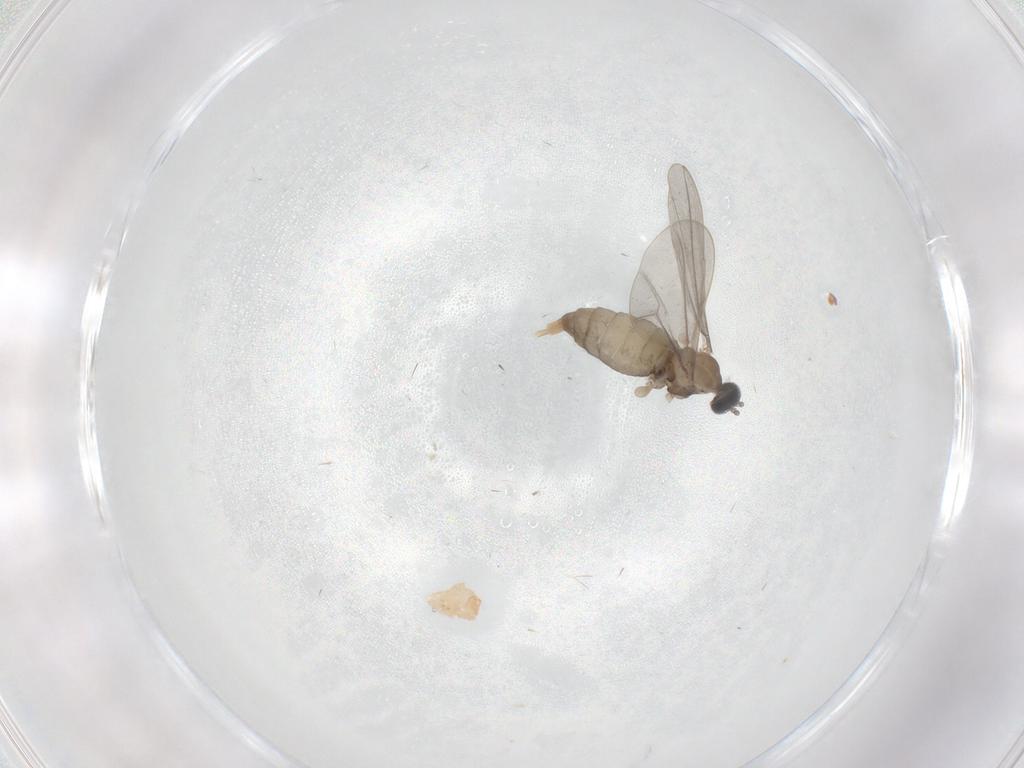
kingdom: Animalia
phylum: Arthropoda
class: Insecta
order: Diptera
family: Cecidomyiidae
